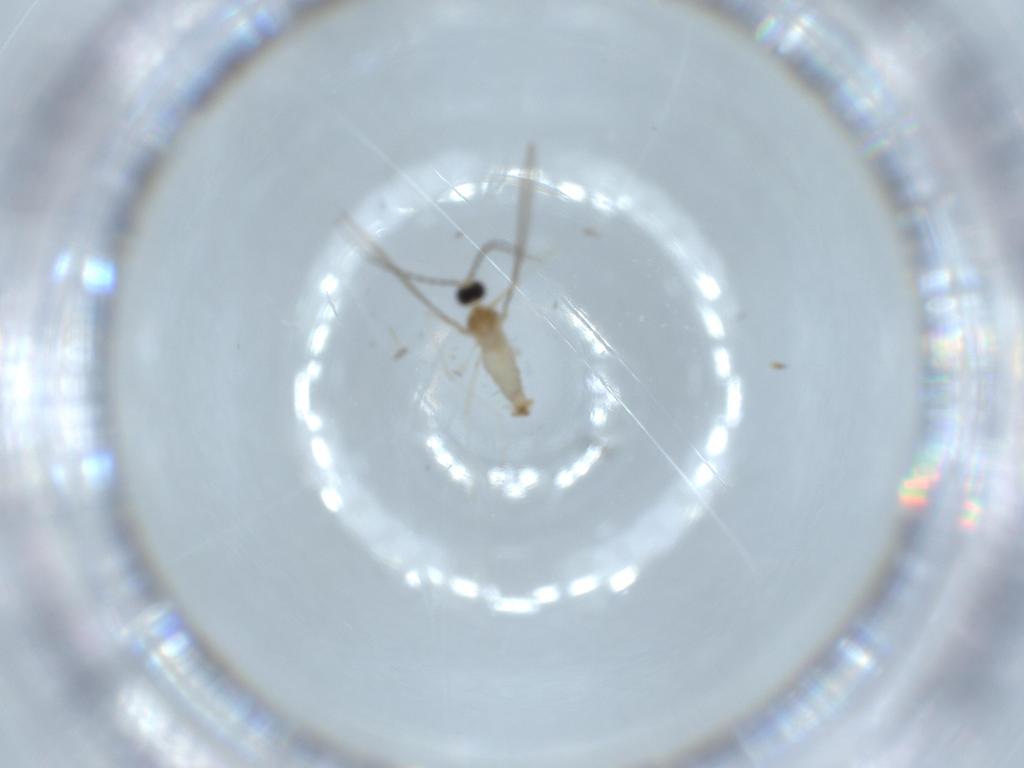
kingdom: Animalia
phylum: Arthropoda
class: Insecta
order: Diptera
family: Cecidomyiidae
